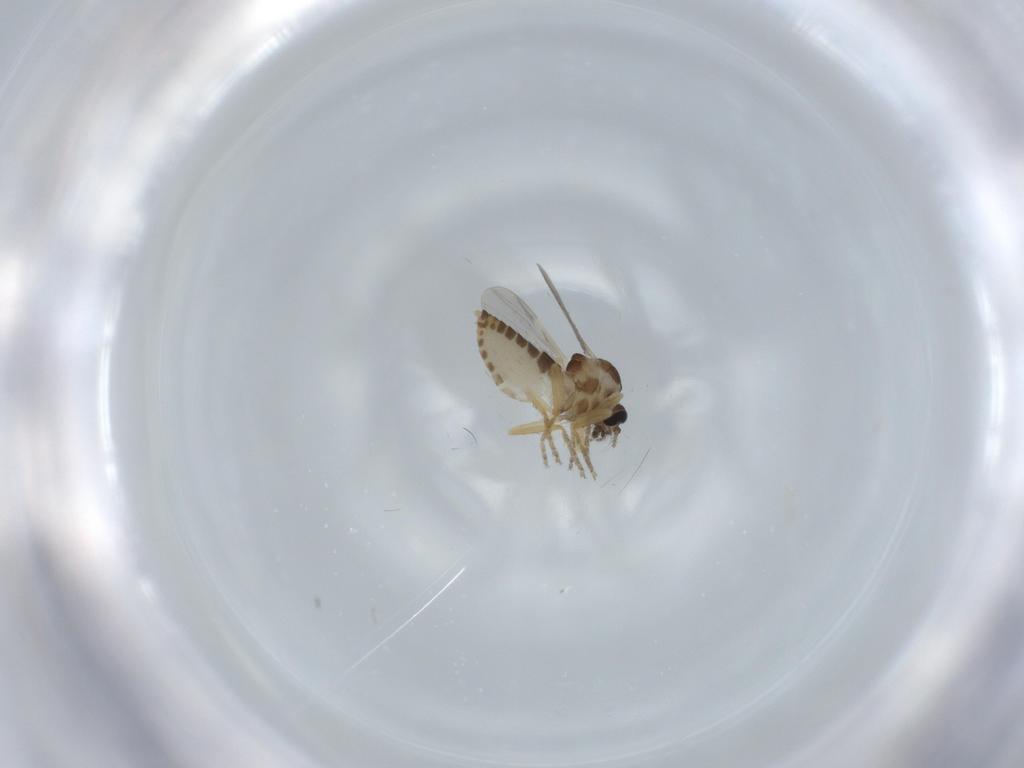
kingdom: Animalia
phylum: Arthropoda
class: Insecta
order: Diptera
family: Ceratopogonidae
